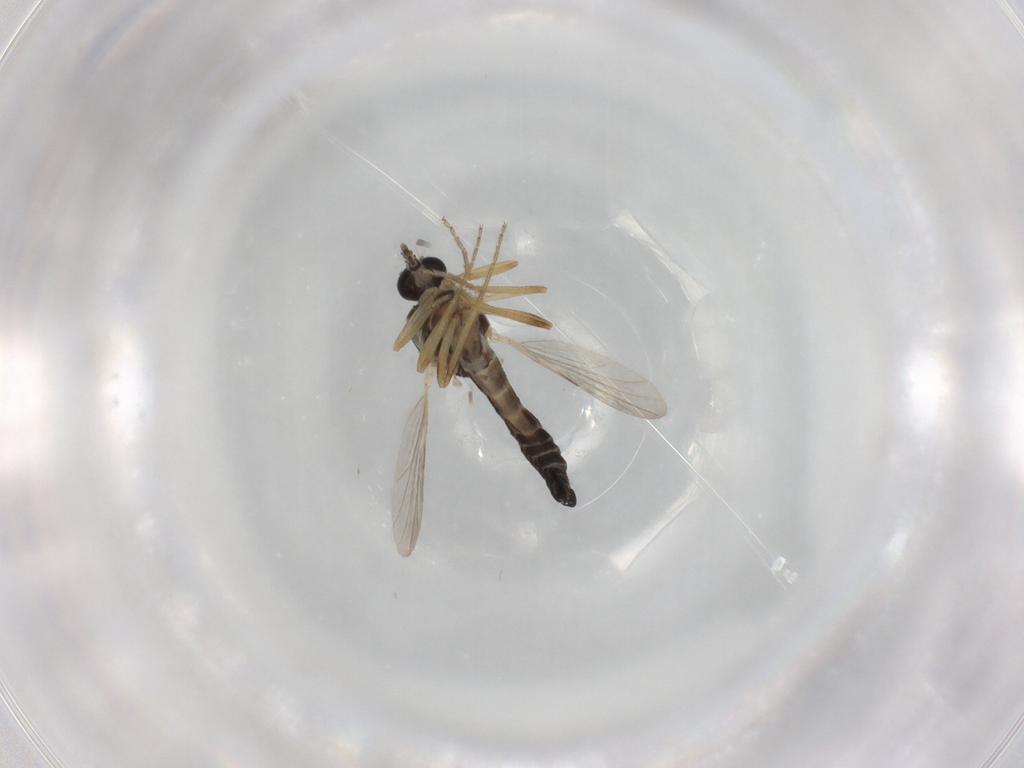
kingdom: Animalia
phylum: Arthropoda
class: Insecta
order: Diptera
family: Ceratopogonidae
